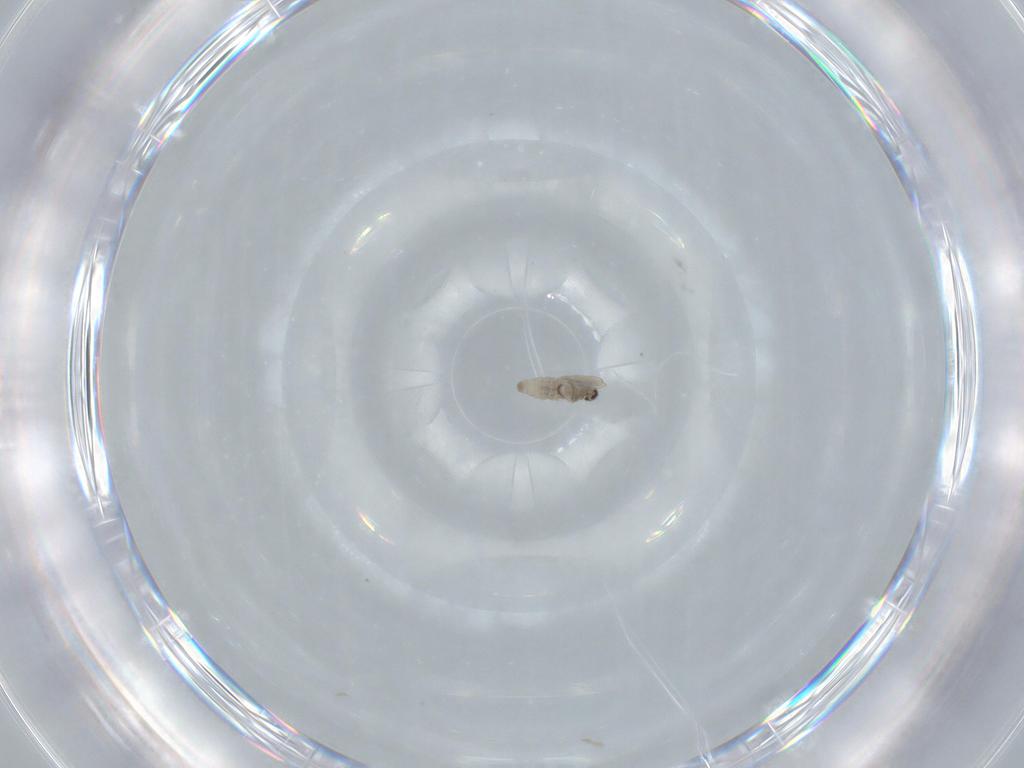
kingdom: Animalia
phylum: Arthropoda
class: Insecta
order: Diptera
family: Cecidomyiidae
